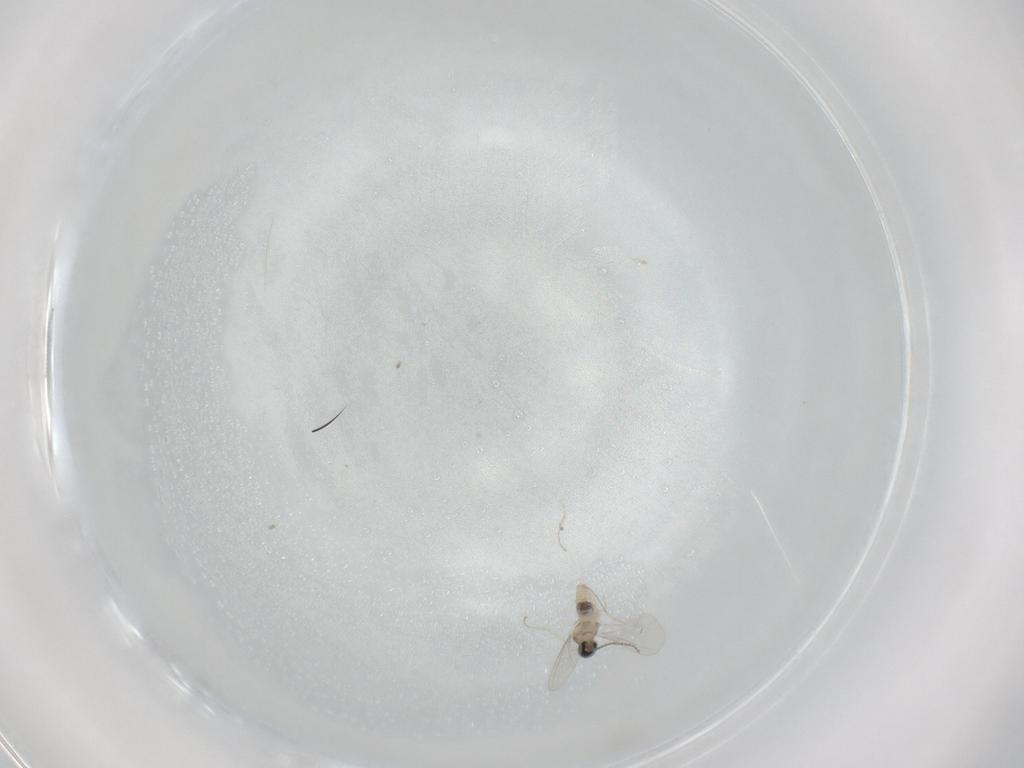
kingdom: Animalia
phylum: Arthropoda
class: Insecta
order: Diptera
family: Cecidomyiidae
